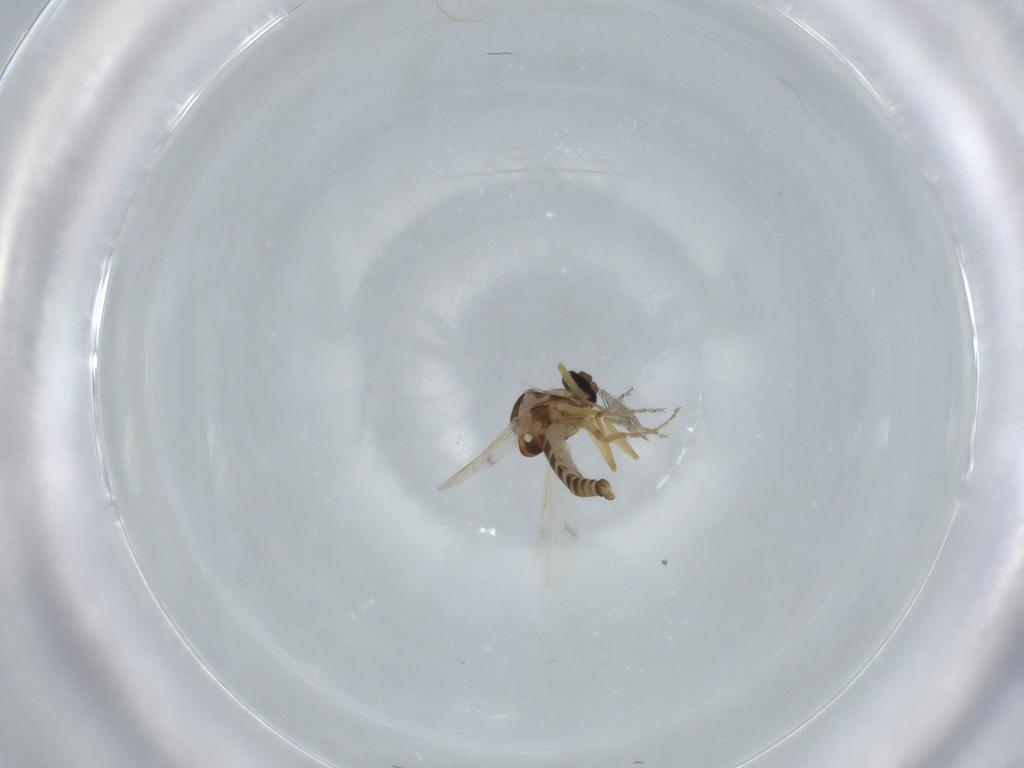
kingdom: Animalia
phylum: Arthropoda
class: Insecta
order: Diptera
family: Ceratopogonidae
